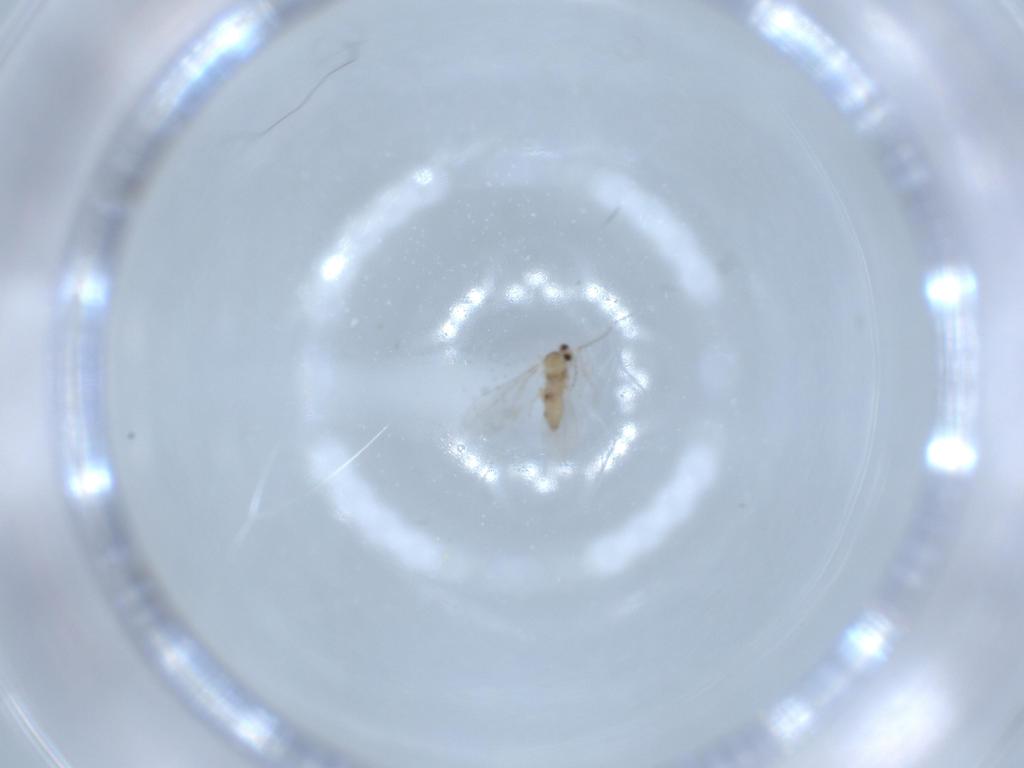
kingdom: Animalia
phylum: Arthropoda
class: Insecta
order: Diptera
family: Cecidomyiidae
